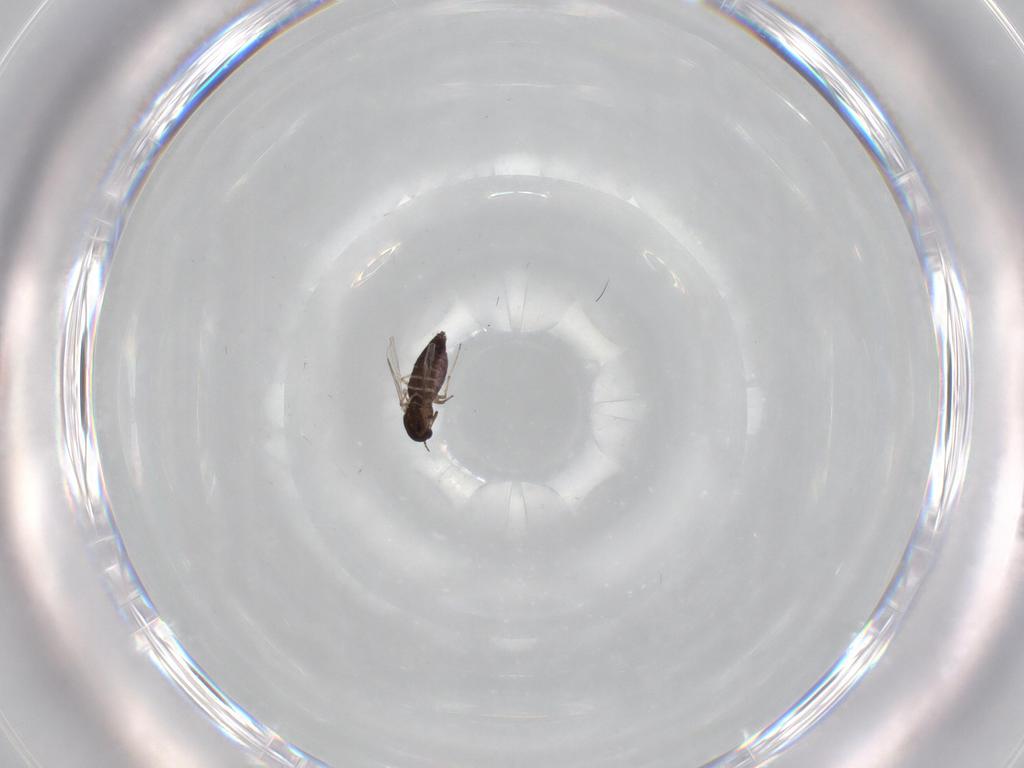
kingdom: Animalia
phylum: Arthropoda
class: Insecta
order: Diptera
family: Chironomidae
